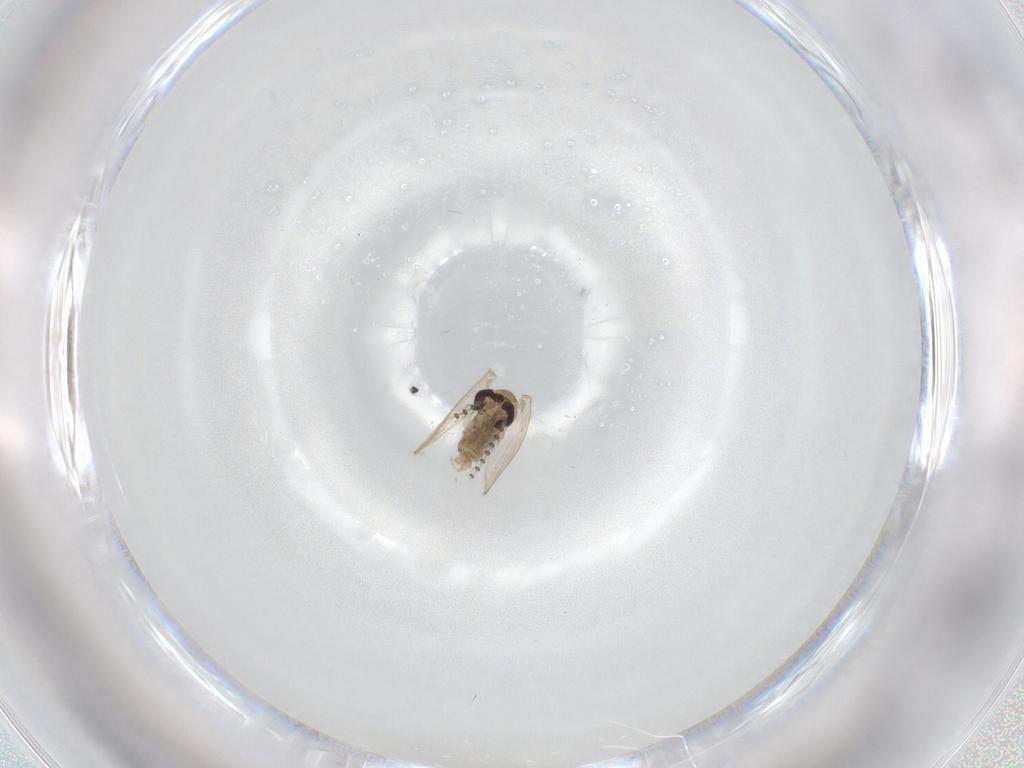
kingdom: Animalia
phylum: Arthropoda
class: Insecta
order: Diptera
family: Psychodidae
